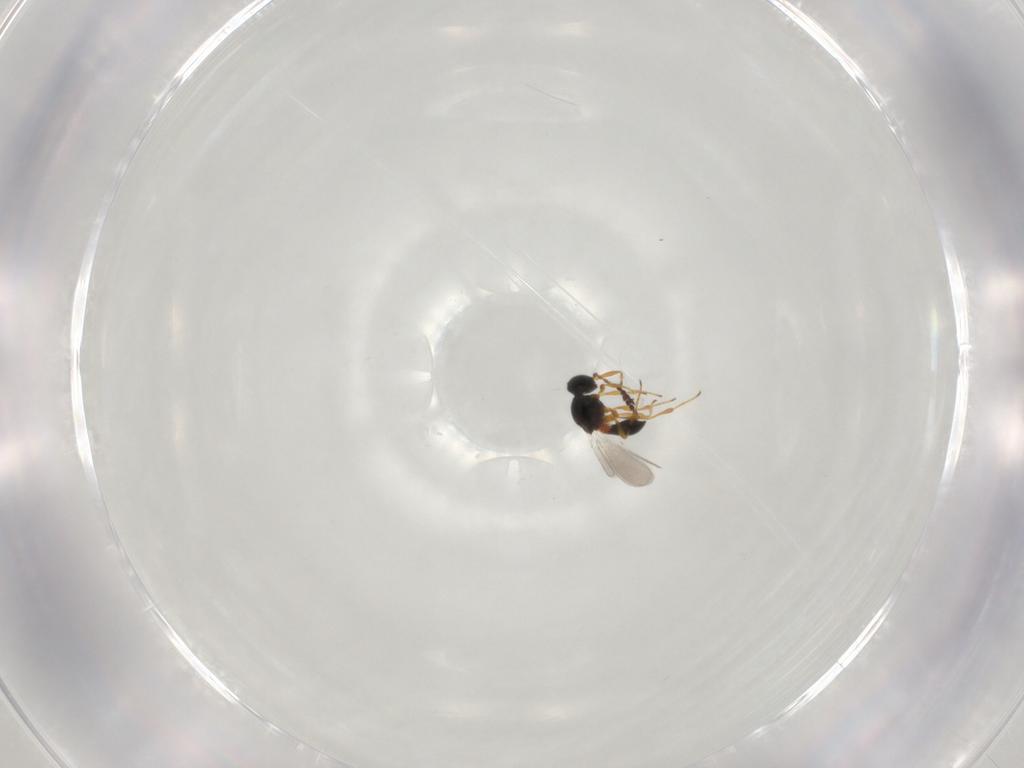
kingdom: Animalia
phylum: Arthropoda
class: Insecta
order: Hymenoptera
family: Platygastridae
